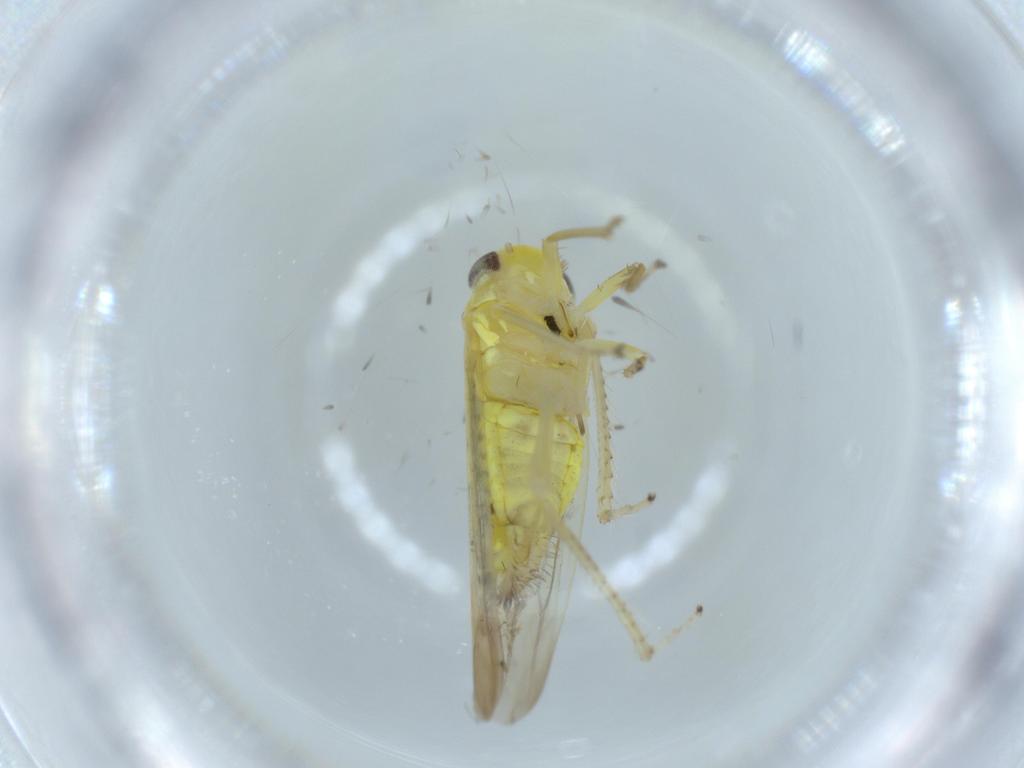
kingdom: Animalia
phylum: Arthropoda
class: Insecta
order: Hemiptera
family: Cicadellidae
